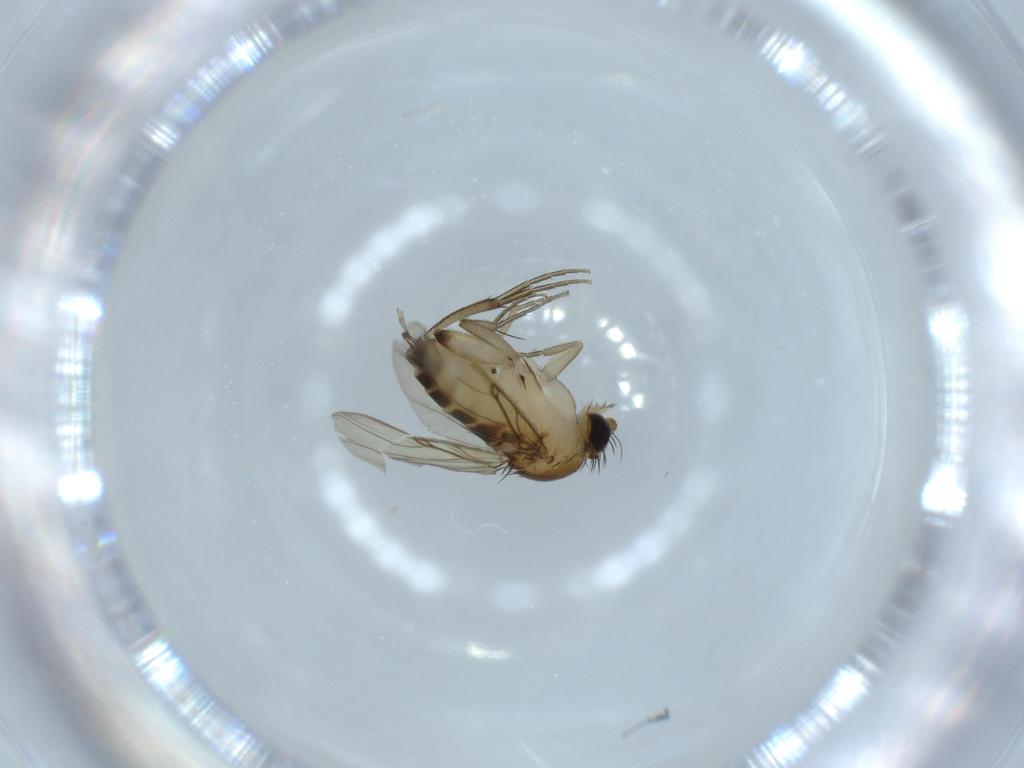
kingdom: Animalia
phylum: Arthropoda
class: Insecta
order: Diptera
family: Phoridae
